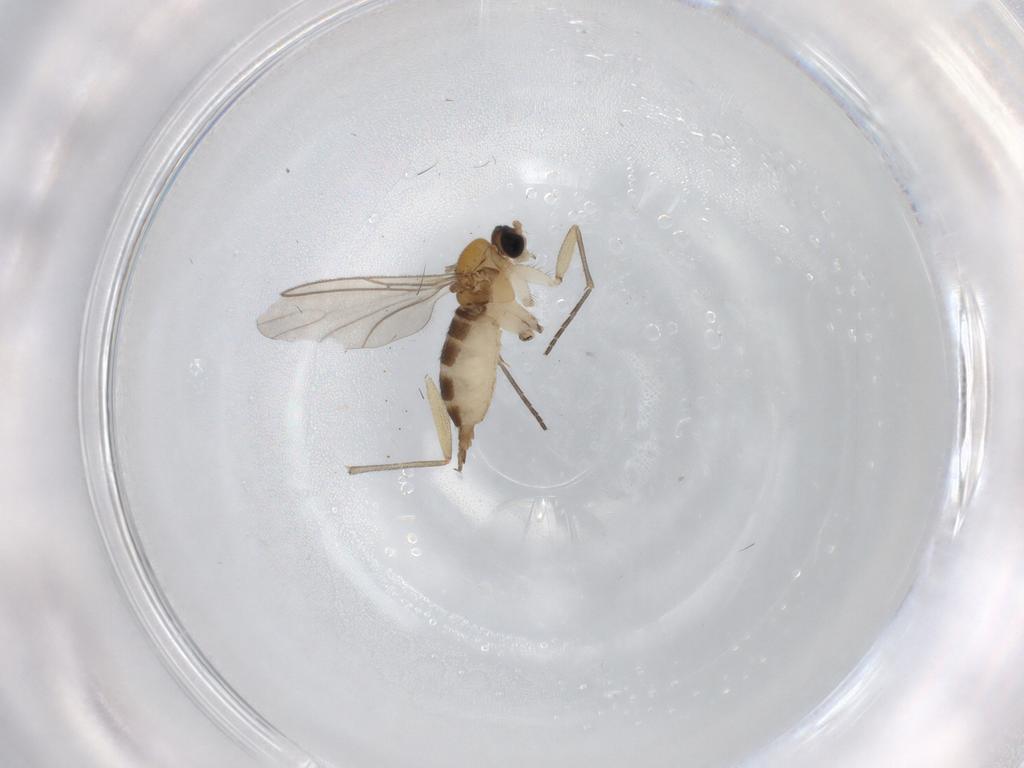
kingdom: Animalia
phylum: Arthropoda
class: Insecta
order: Diptera
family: Sciaridae
